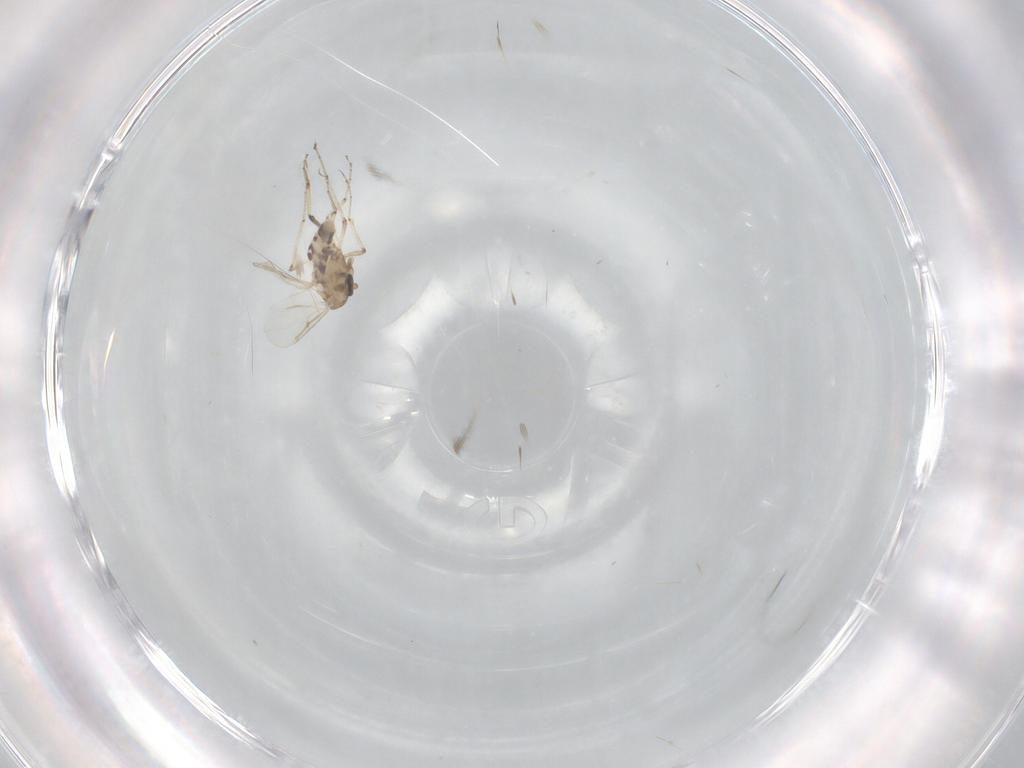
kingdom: Animalia
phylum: Arthropoda
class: Insecta
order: Diptera
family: Ceratopogonidae
